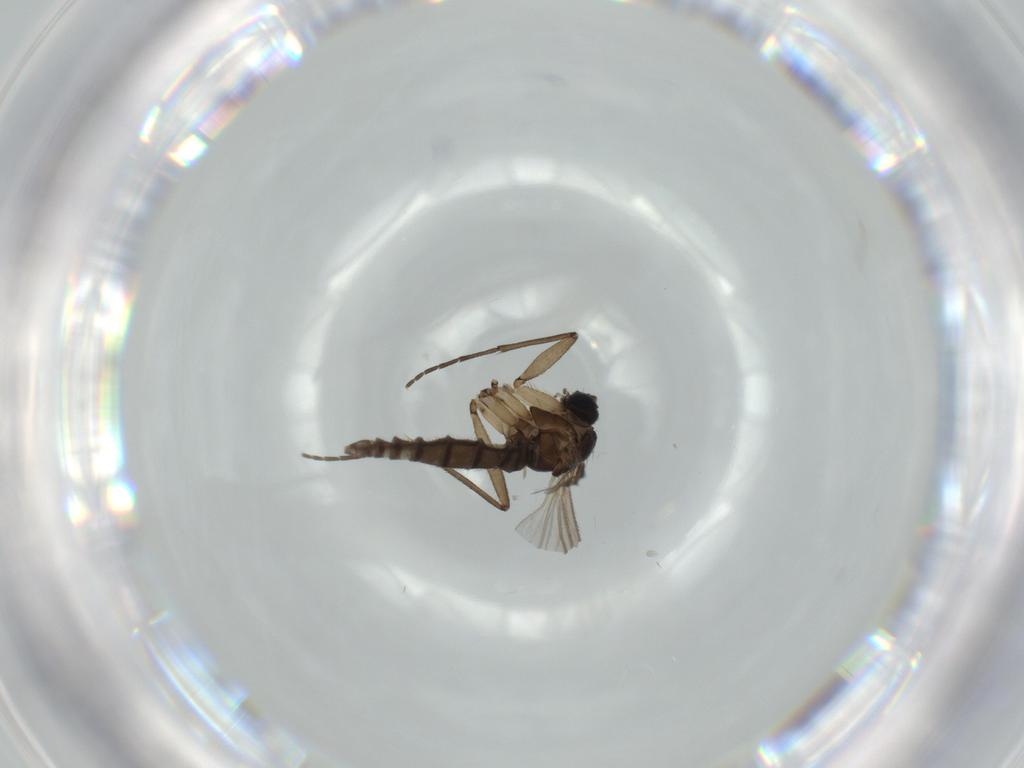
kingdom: Animalia
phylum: Arthropoda
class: Insecta
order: Diptera
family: Sciaridae
